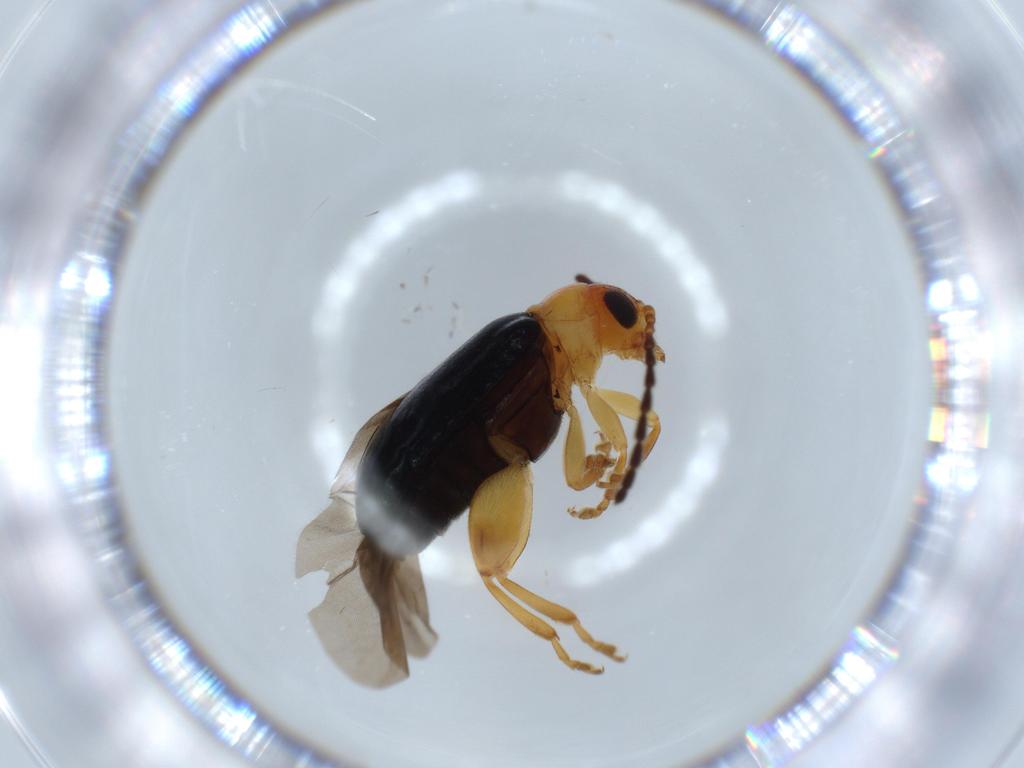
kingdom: Animalia
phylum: Arthropoda
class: Insecta
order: Coleoptera
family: Chrysomelidae
